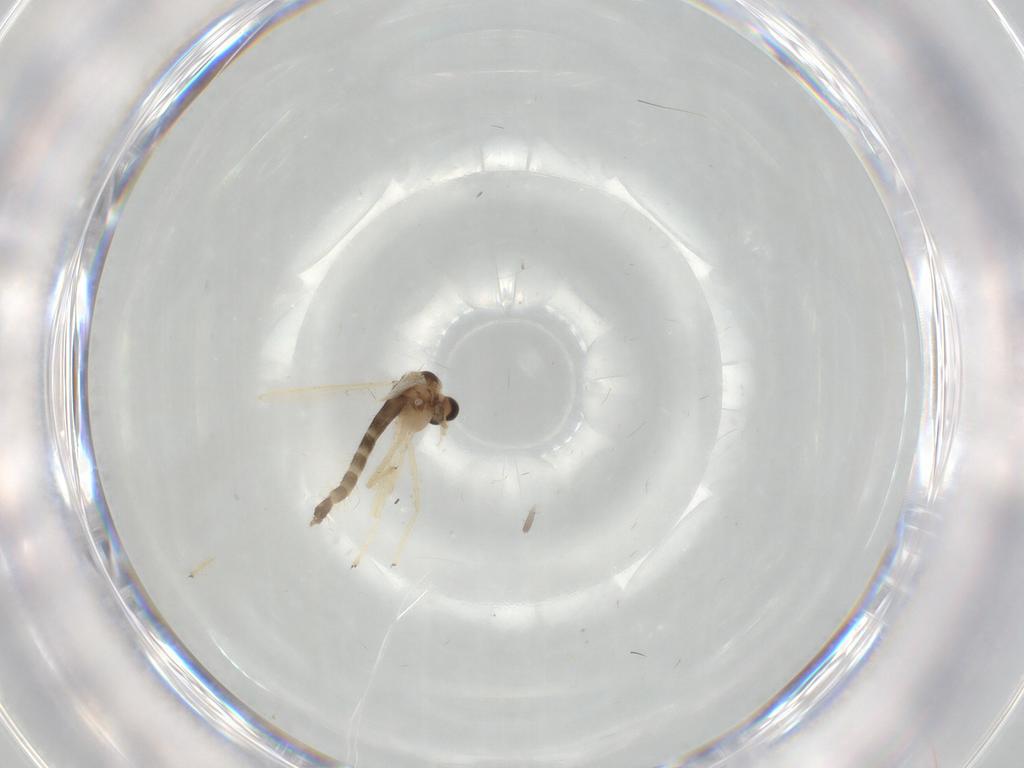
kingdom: Animalia
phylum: Arthropoda
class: Insecta
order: Diptera
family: Chironomidae
